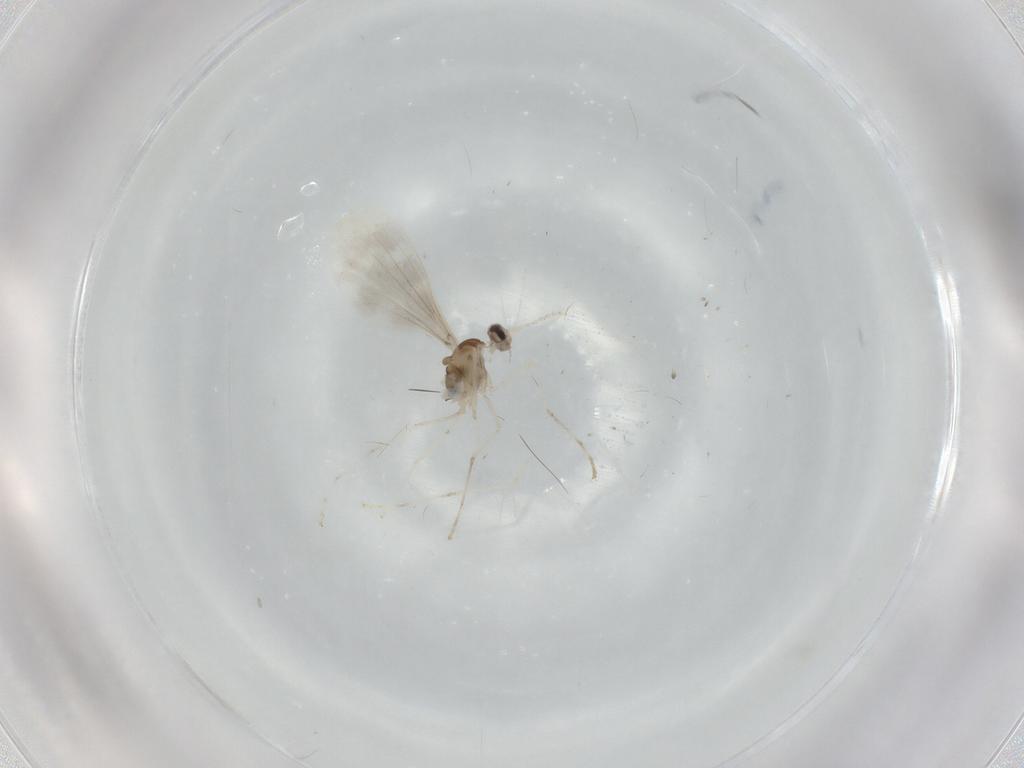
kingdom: Animalia
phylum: Arthropoda
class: Insecta
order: Diptera
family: Cecidomyiidae
